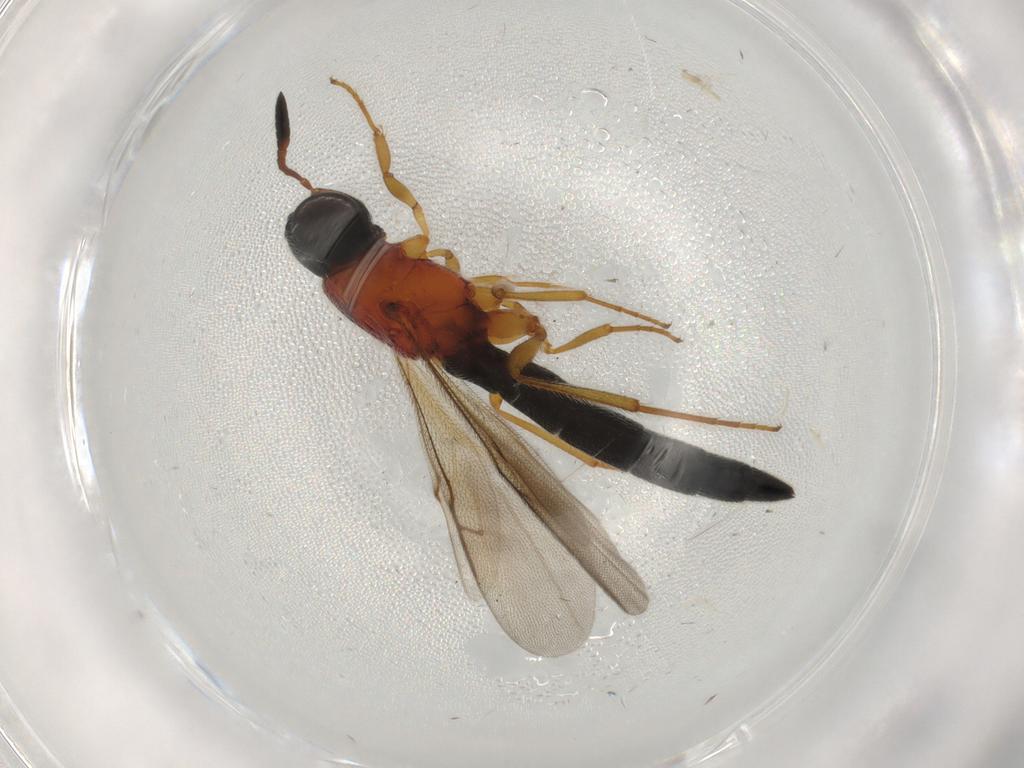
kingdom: Animalia
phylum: Arthropoda
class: Insecta
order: Hymenoptera
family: Scelionidae
